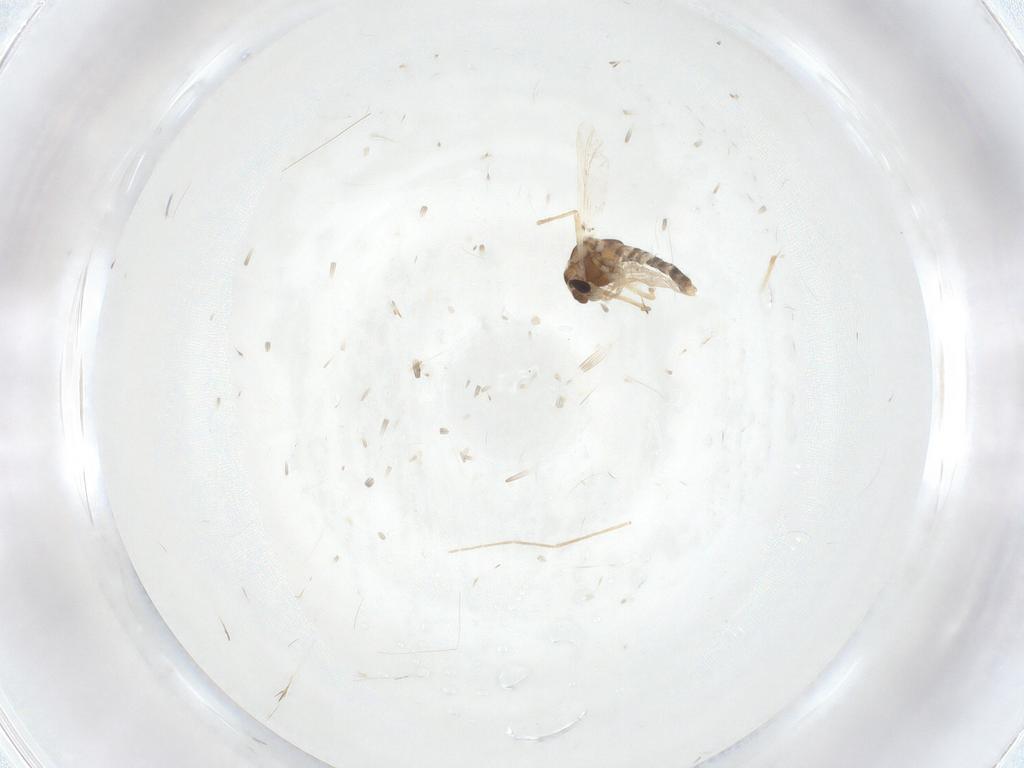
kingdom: Animalia
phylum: Arthropoda
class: Insecta
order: Diptera
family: Chironomidae
